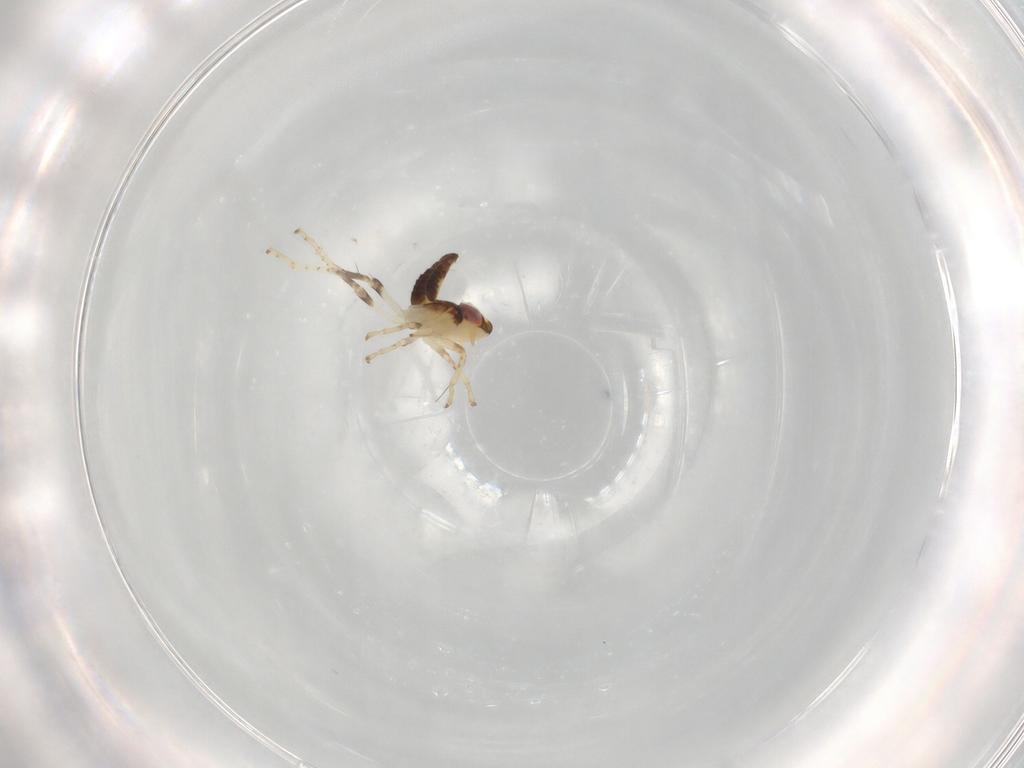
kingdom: Animalia
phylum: Arthropoda
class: Insecta
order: Hemiptera
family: Cicadellidae
